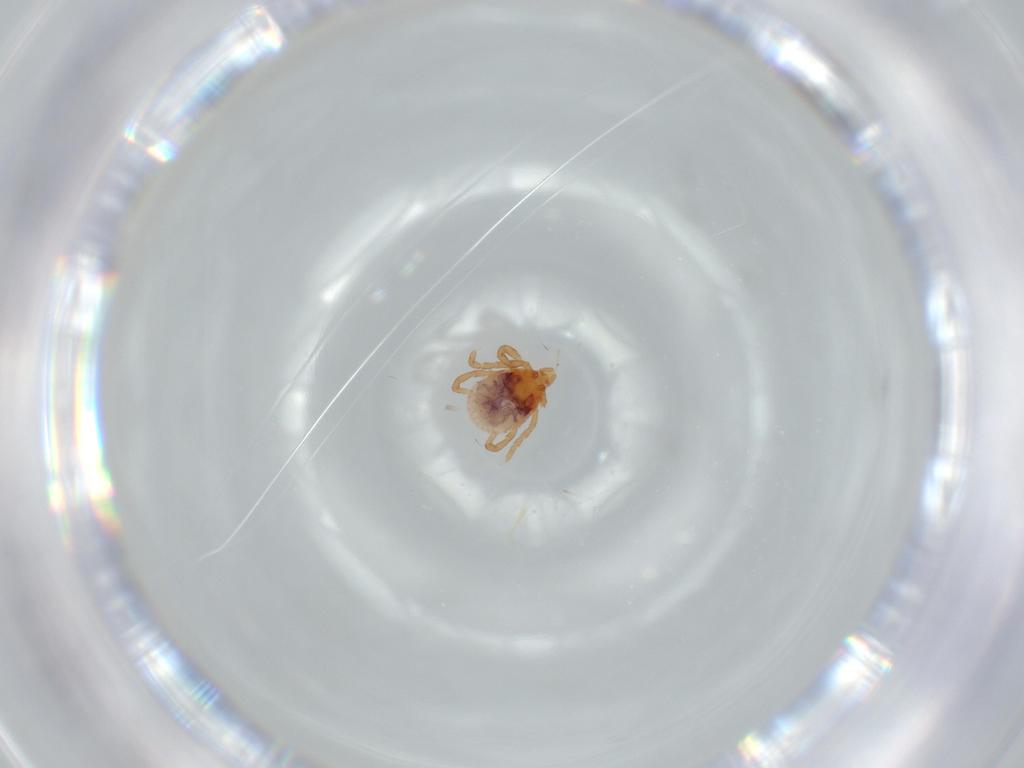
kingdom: Animalia
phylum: Arthropoda
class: Arachnida
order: Ixodida
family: Ixodidae
